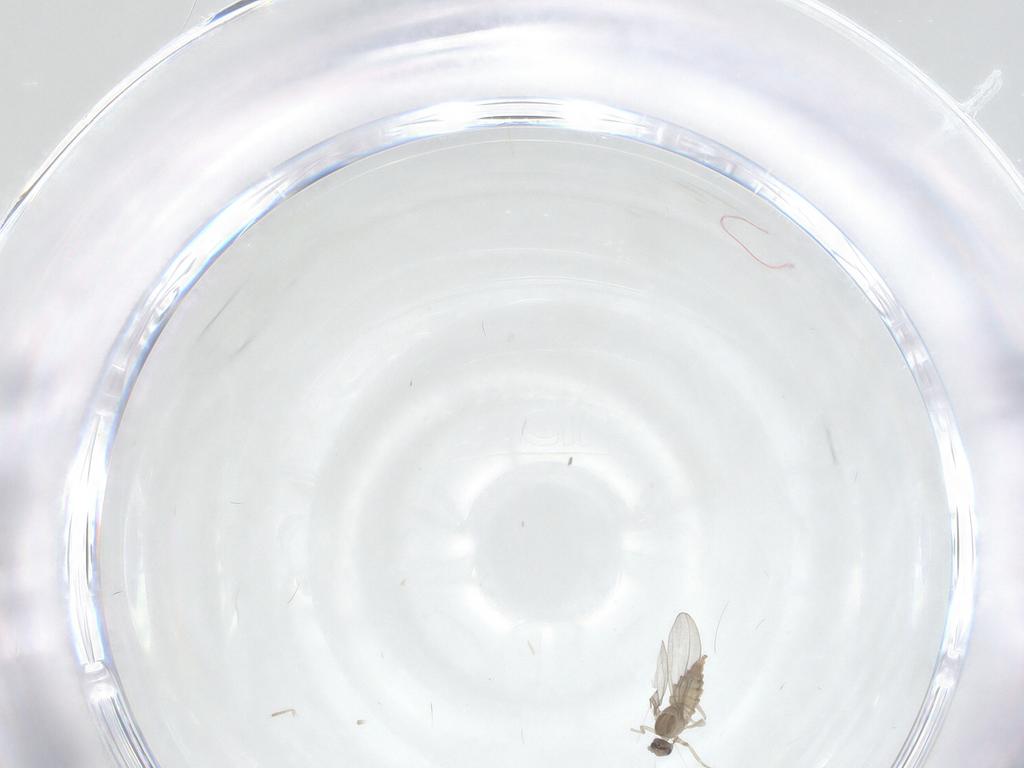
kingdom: Animalia
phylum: Arthropoda
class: Insecta
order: Diptera
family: Cecidomyiidae
